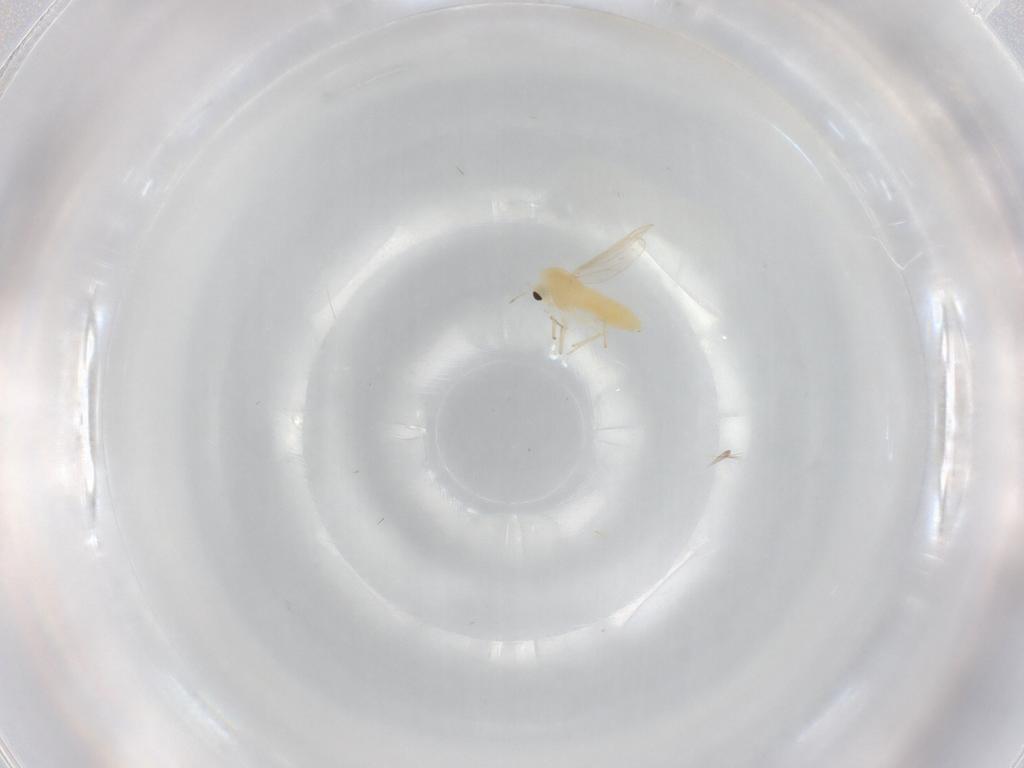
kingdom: Animalia
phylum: Arthropoda
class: Insecta
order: Diptera
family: Chironomidae
